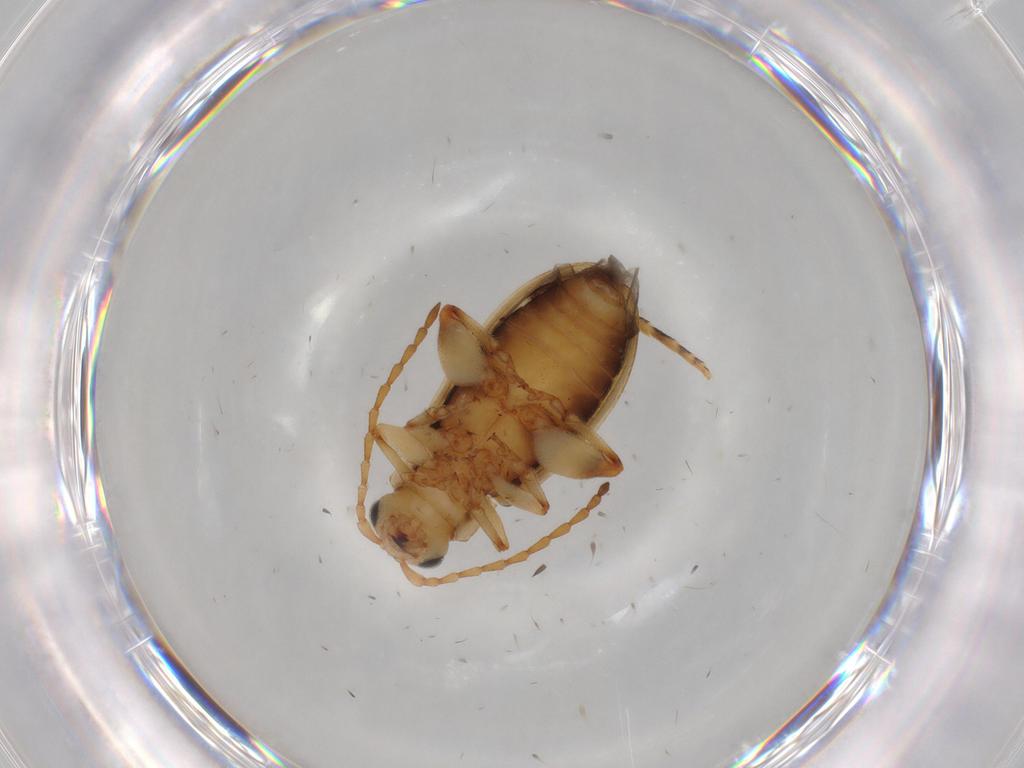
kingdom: Animalia
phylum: Arthropoda
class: Insecta
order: Coleoptera
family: Chrysomelidae
